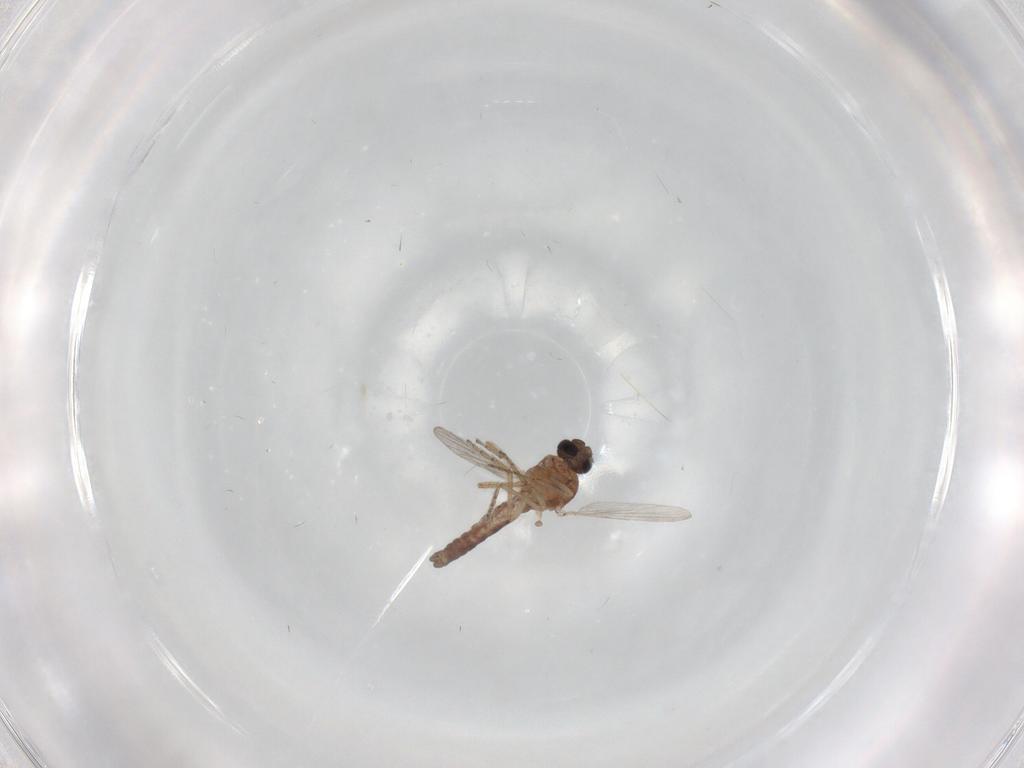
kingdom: Animalia
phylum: Arthropoda
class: Insecta
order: Diptera
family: Ceratopogonidae
